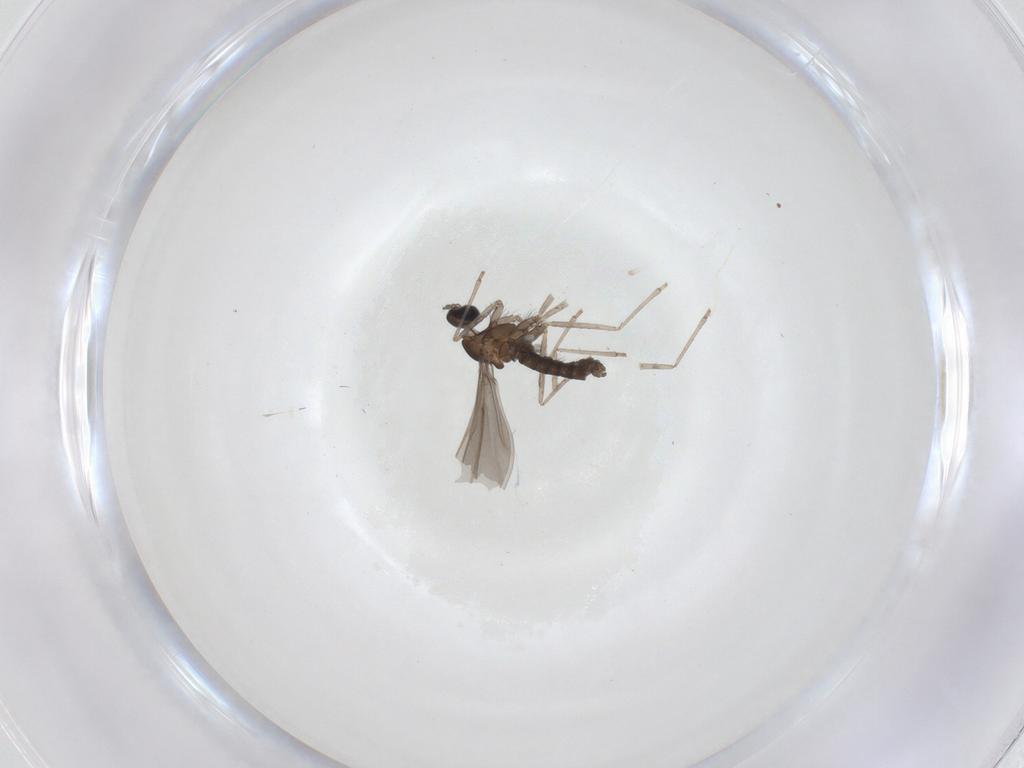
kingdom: Animalia
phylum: Arthropoda
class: Insecta
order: Diptera
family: Cecidomyiidae
